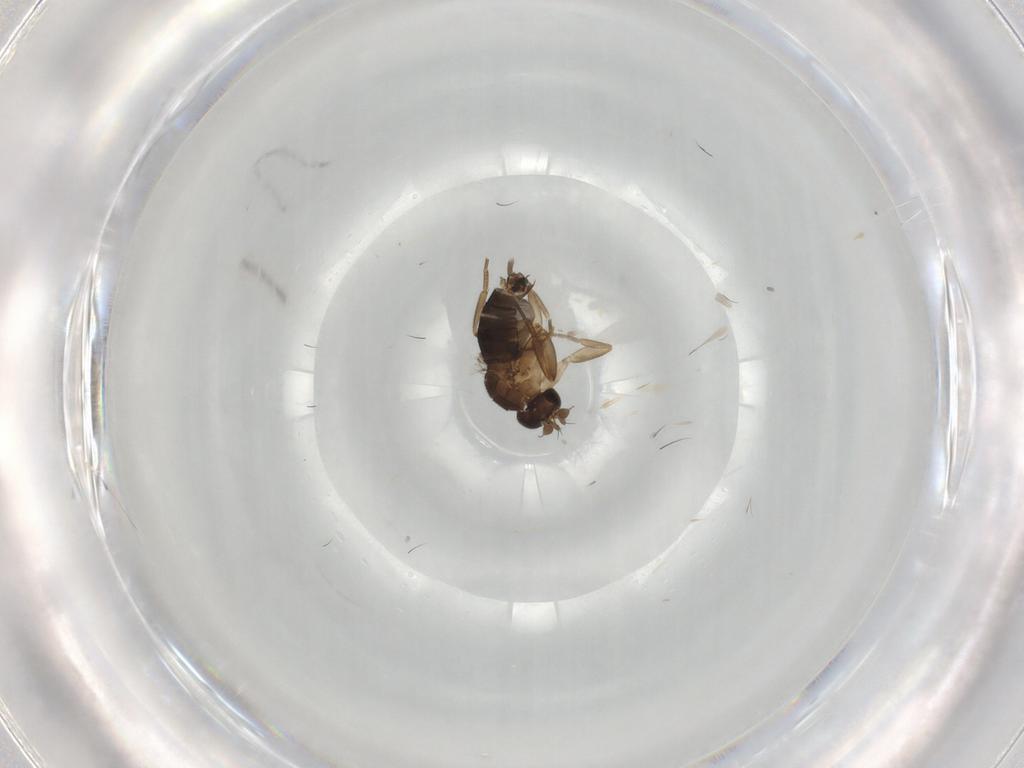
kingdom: Animalia
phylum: Arthropoda
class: Insecta
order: Diptera
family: Phoridae
